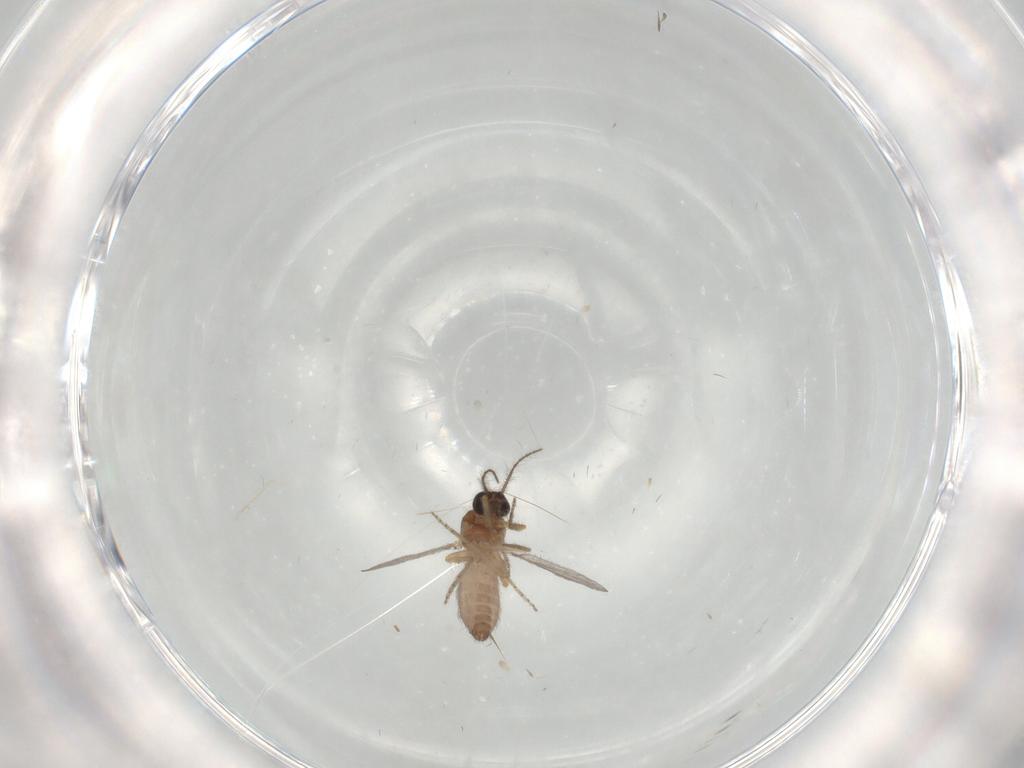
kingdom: Animalia
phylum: Arthropoda
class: Insecta
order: Diptera
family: Ceratopogonidae
